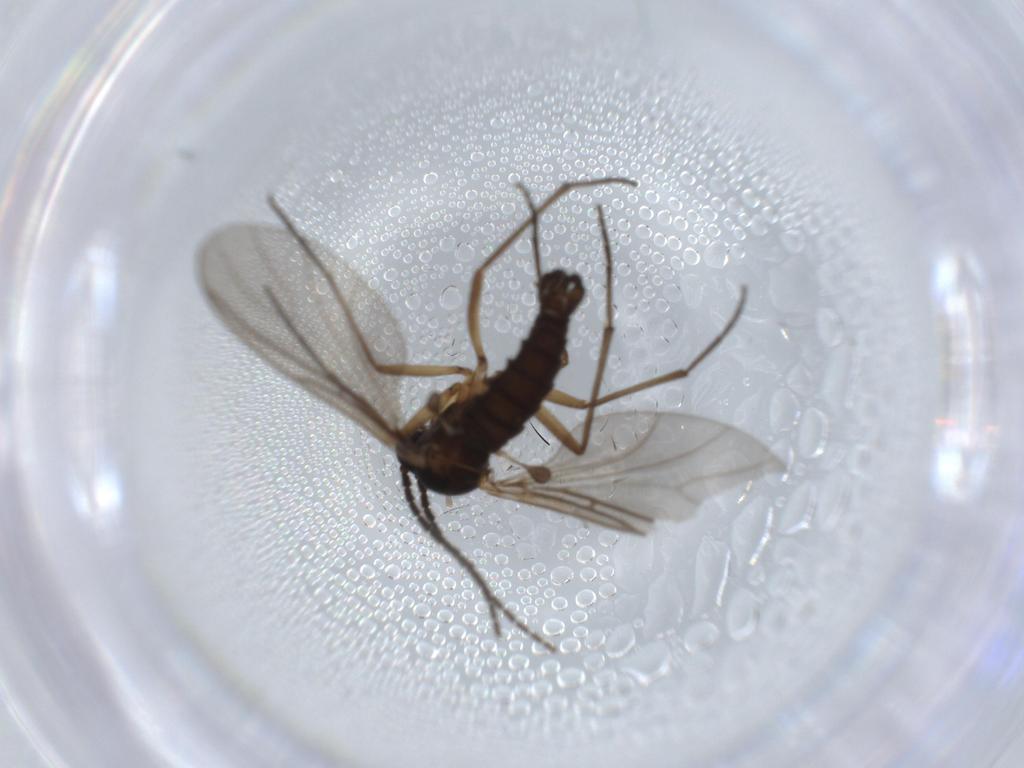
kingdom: Animalia
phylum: Arthropoda
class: Insecta
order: Diptera
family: Sciaridae
